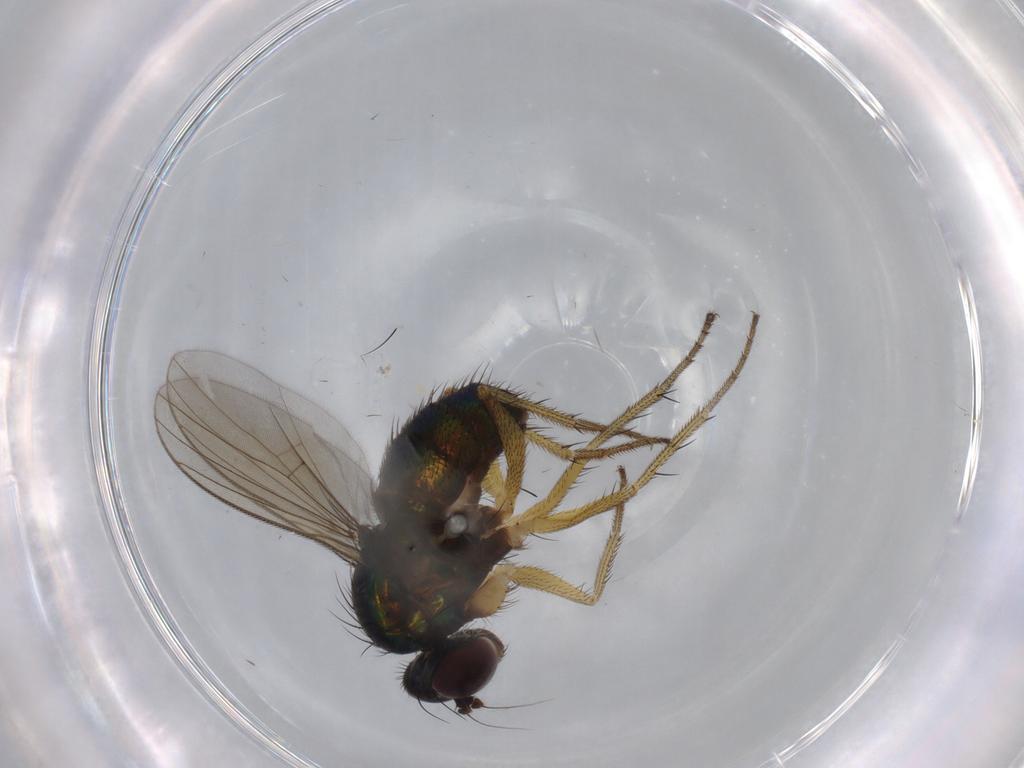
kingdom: Animalia
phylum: Arthropoda
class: Insecta
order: Diptera
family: Dolichopodidae
